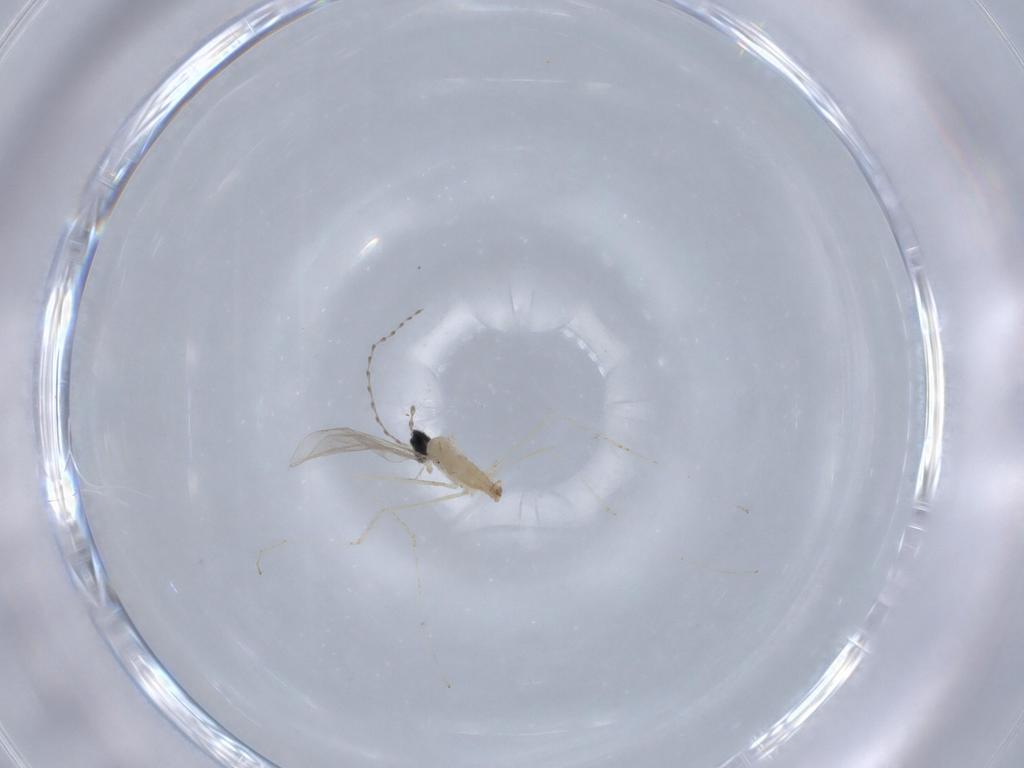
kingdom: Animalia
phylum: Arthropoda
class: Insecta
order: Diptera
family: Cecidomyiidae
